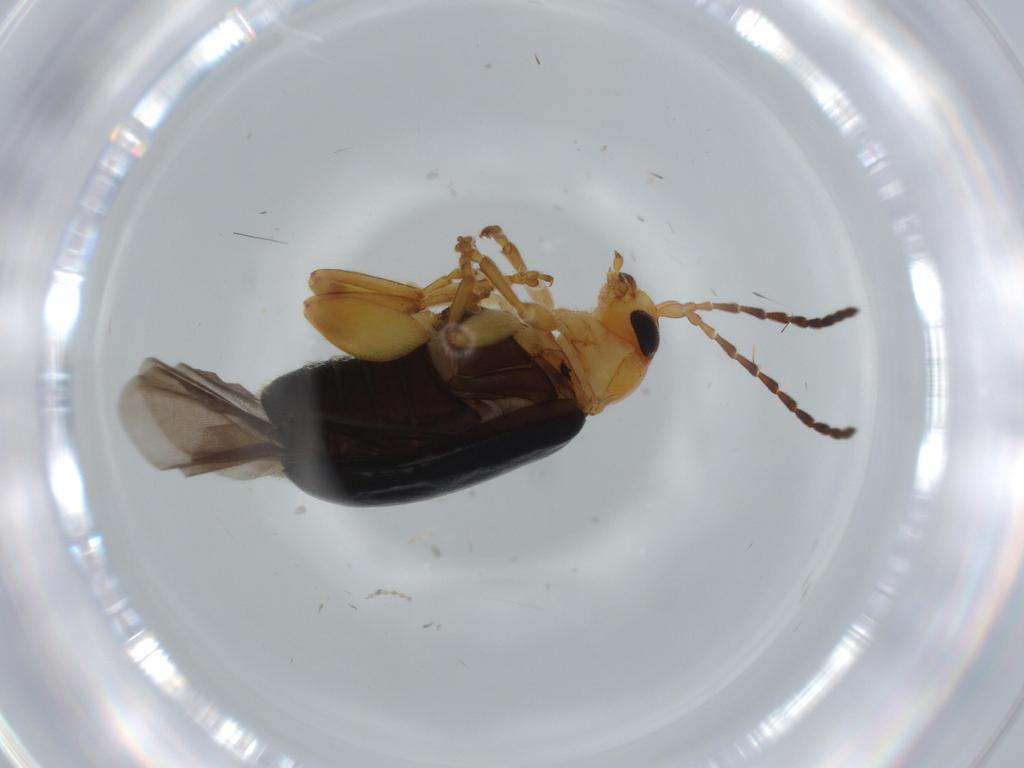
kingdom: Animalia
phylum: Arthropoda
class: Insecta
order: Coleoptera
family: Chrysomelidae
